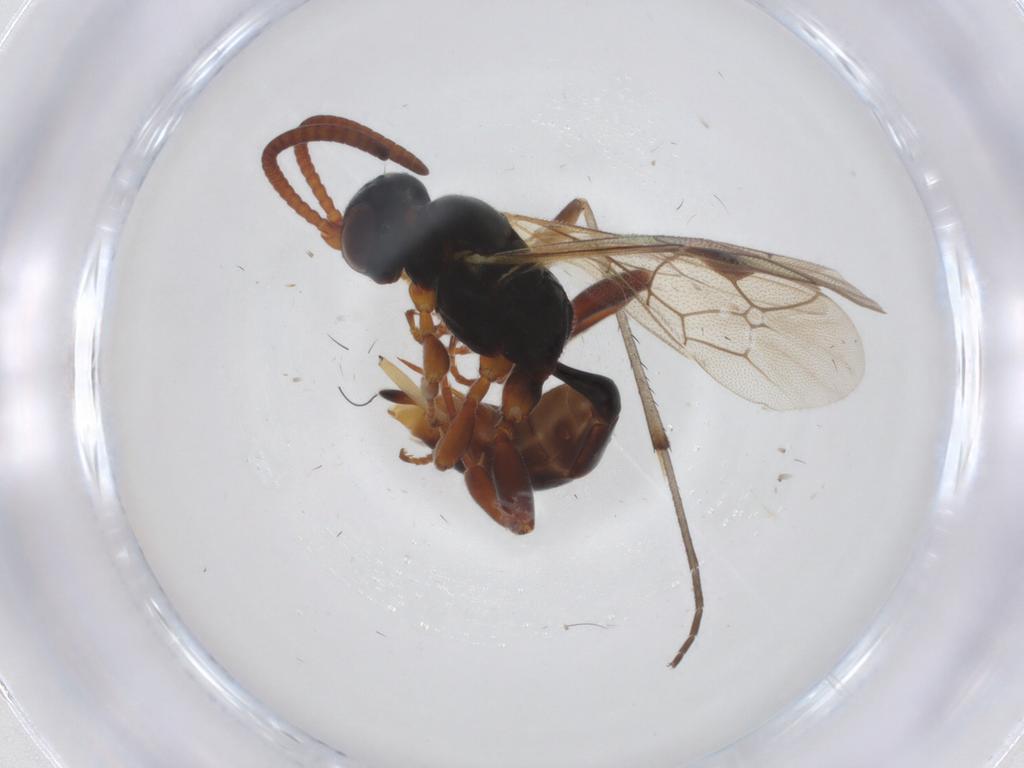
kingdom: Animalia
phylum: Arthropoda
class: Insecta
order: Hymenoptera
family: Ichneumonidae
